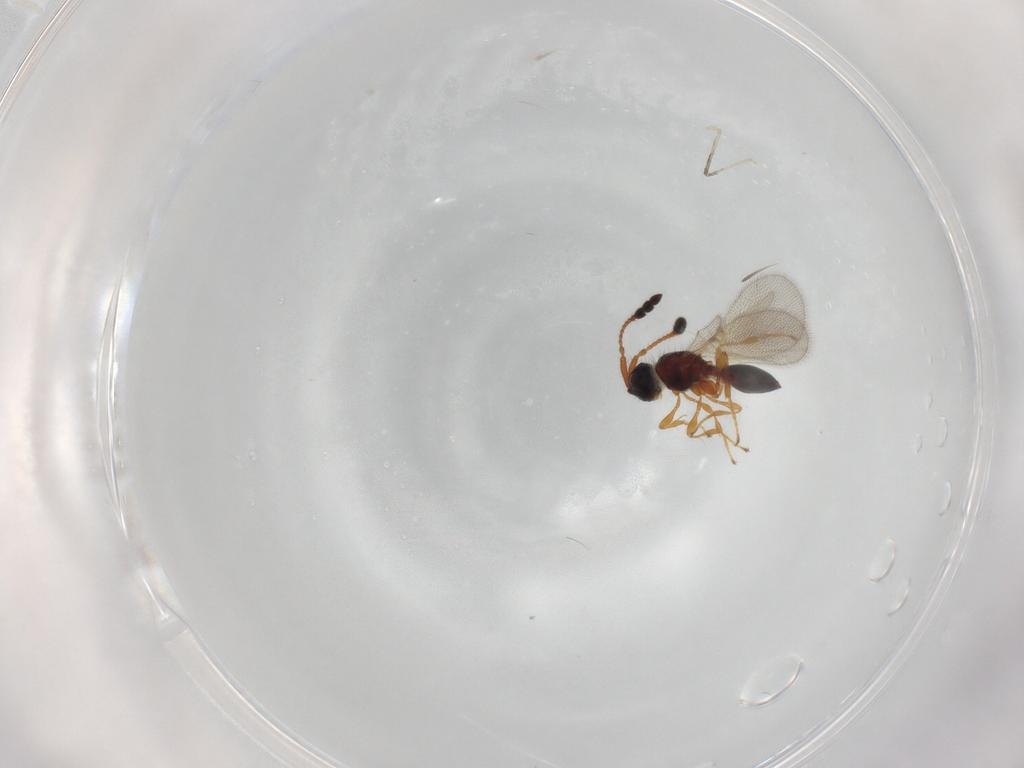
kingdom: Animalia
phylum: Arthropoda
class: Insecta
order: Hymenoptera
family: Diapriidae
